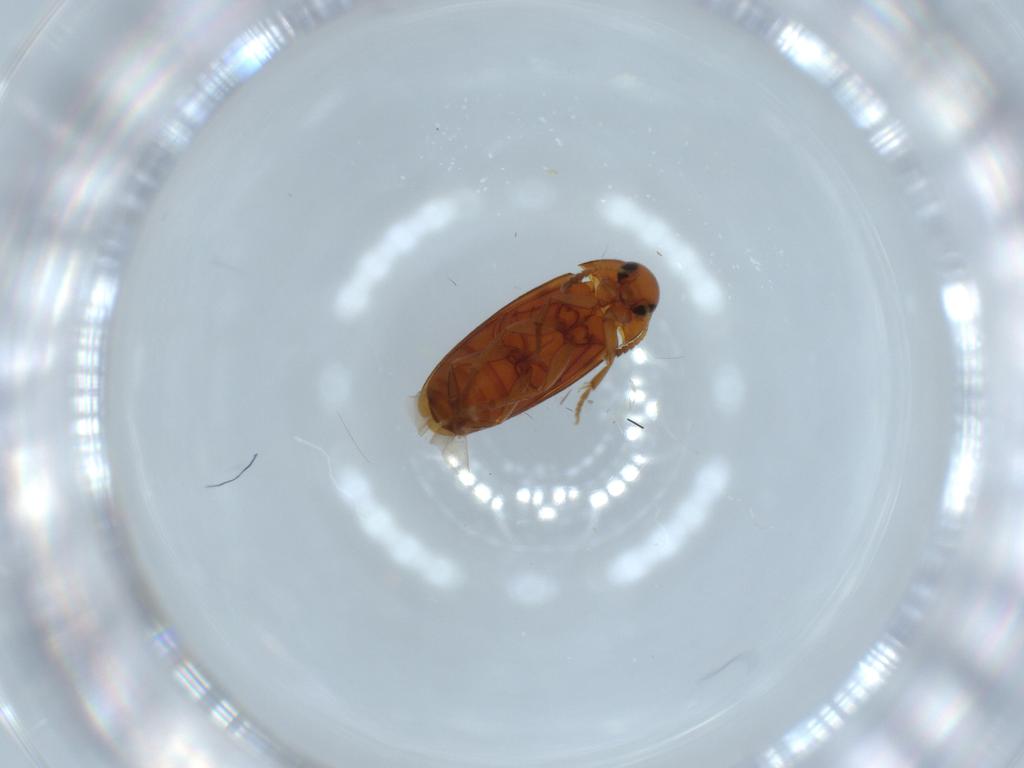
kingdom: Animalia
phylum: Arthropoda
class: Insecta
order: Coleoptera
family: Scraptiidae
